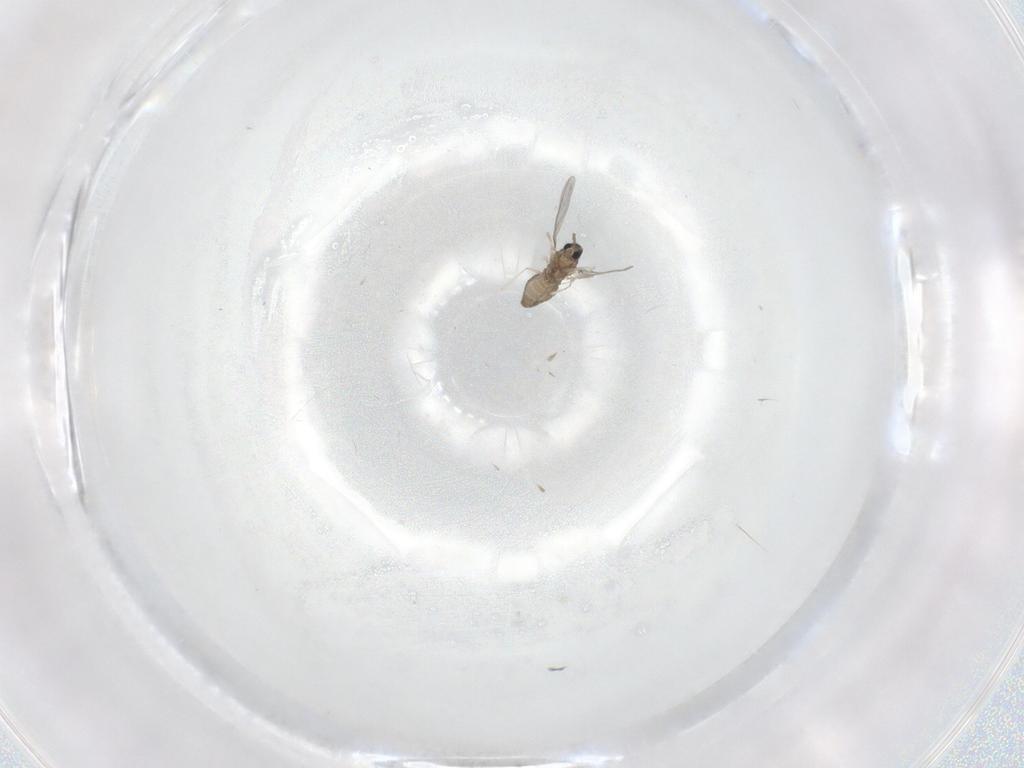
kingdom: Animalia
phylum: Arthropoda
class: Insecta
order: Diptera
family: Cecidomyiidae
